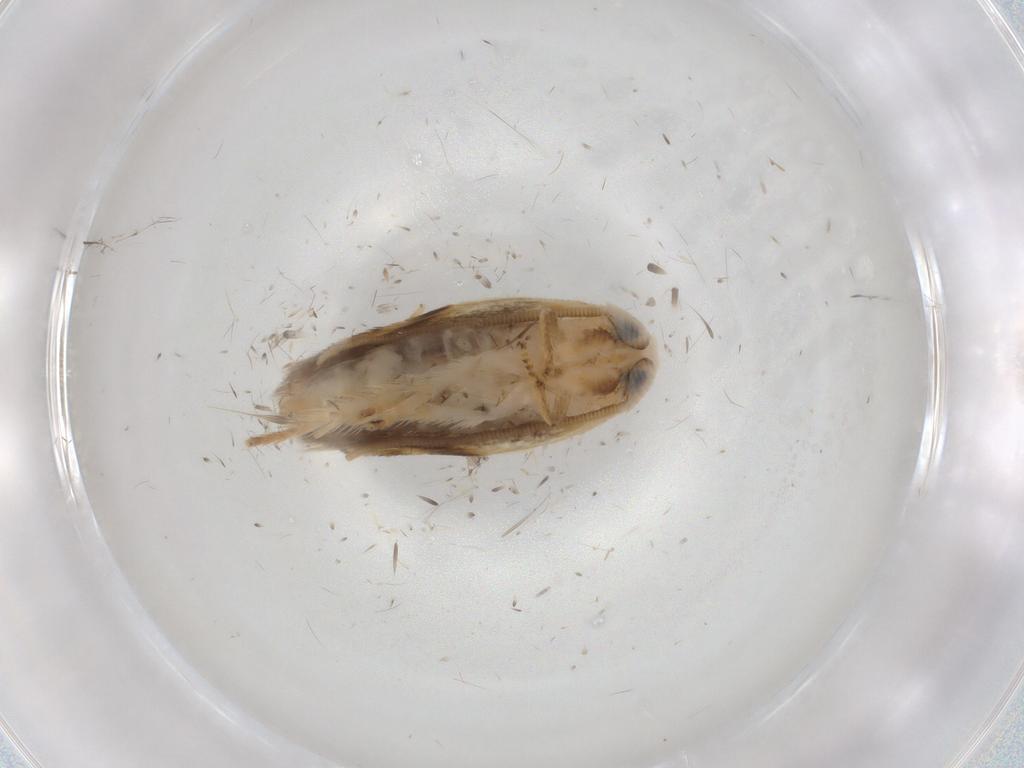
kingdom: Animalia
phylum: Arthropoda
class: Insecta
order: Lepidoptera
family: Opostegidae
